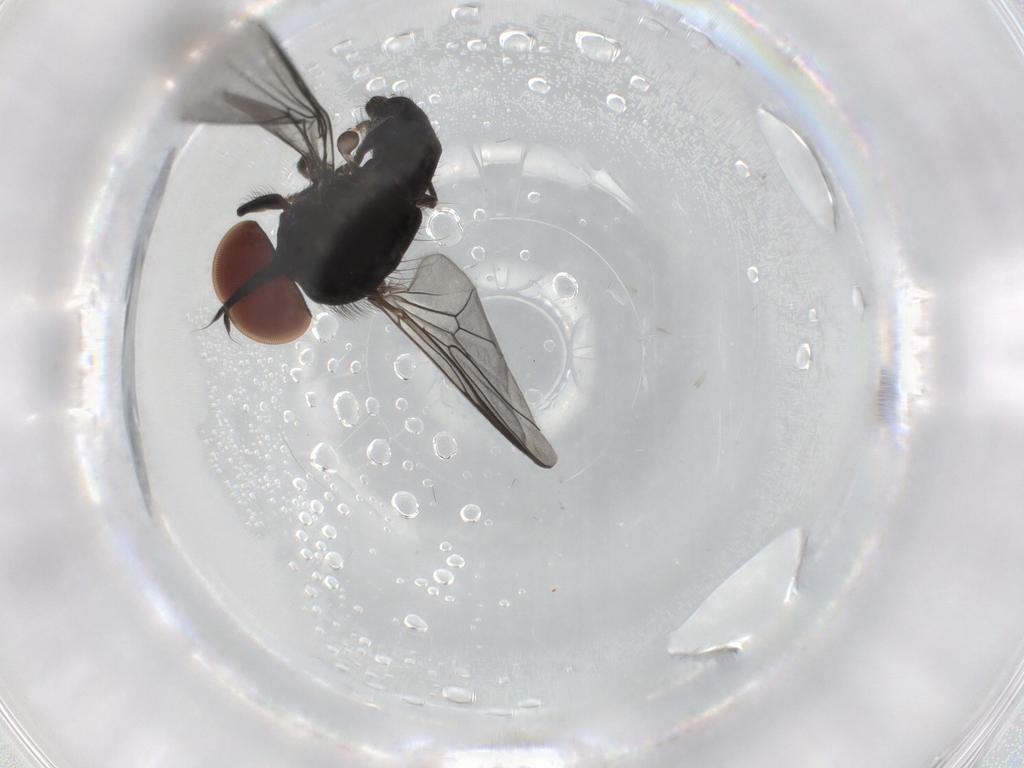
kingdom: Animalia
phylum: Arthropoda
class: Insecta
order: Diptera
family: Pipunculidae
